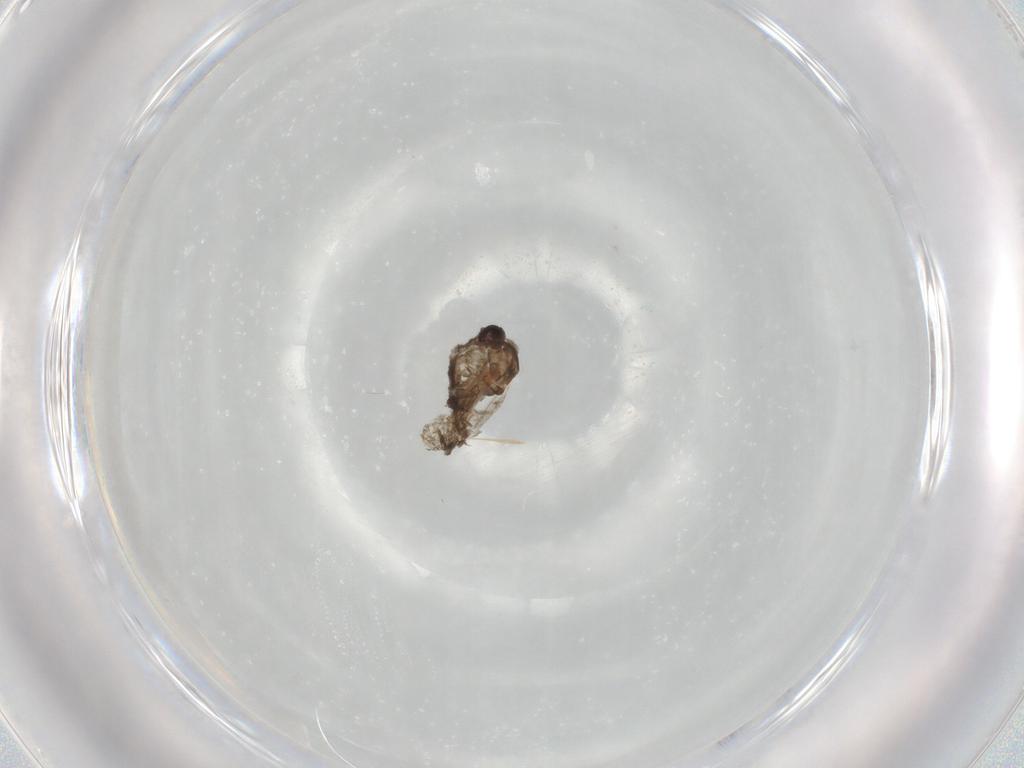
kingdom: Animalia
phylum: Arthropoda
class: Insecta
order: Diptera
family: Ceratopogonidae
